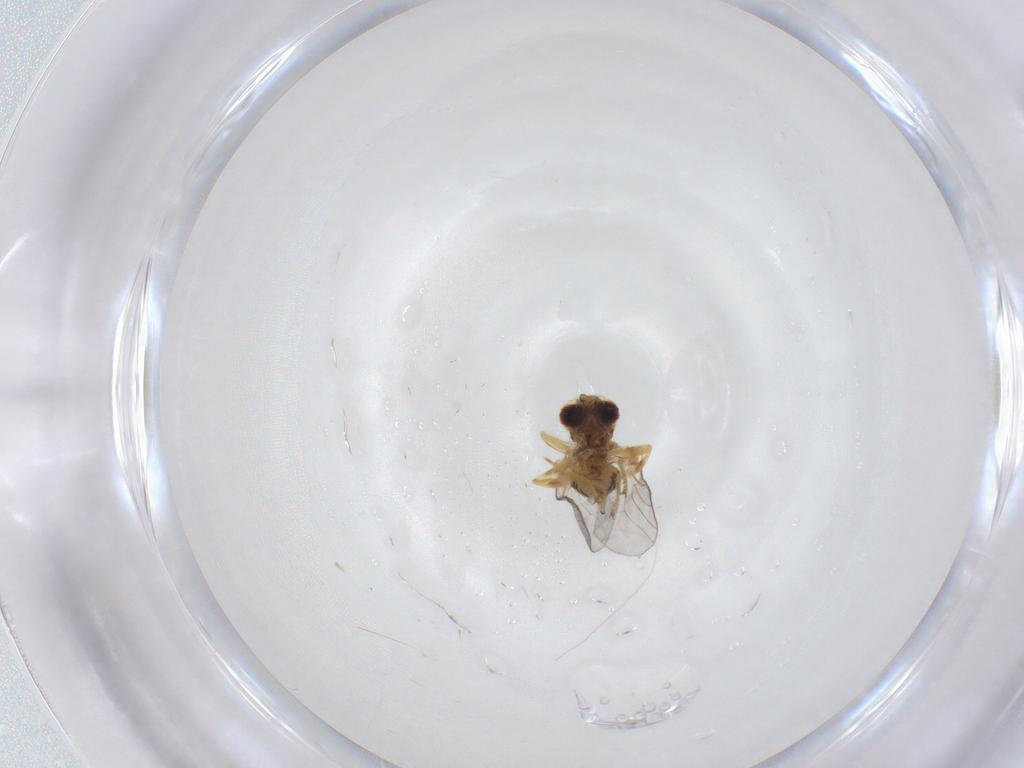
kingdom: Animalia
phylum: Arthropoda
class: Insecta
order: Diptera
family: Chloropidae
